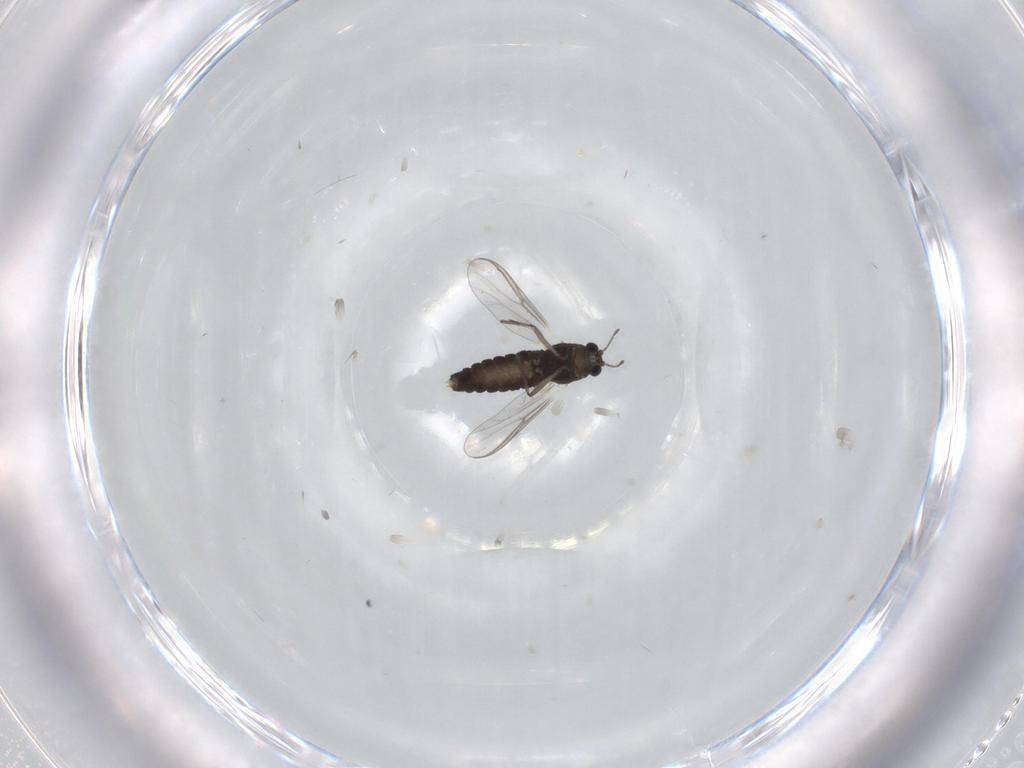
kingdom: Animalia
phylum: Arthropoda
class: Insecta
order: Diptera
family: Chironomidae
